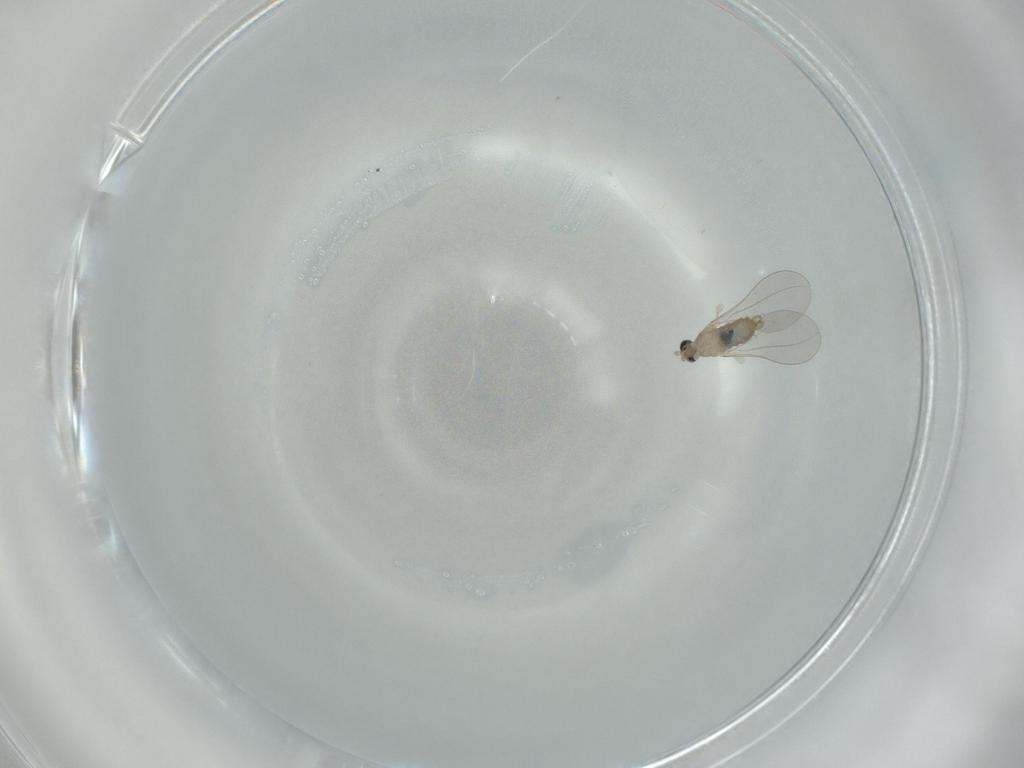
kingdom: Animalia
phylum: Arthropoda
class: Insecta
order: Diptera
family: Cecidomyiidae
